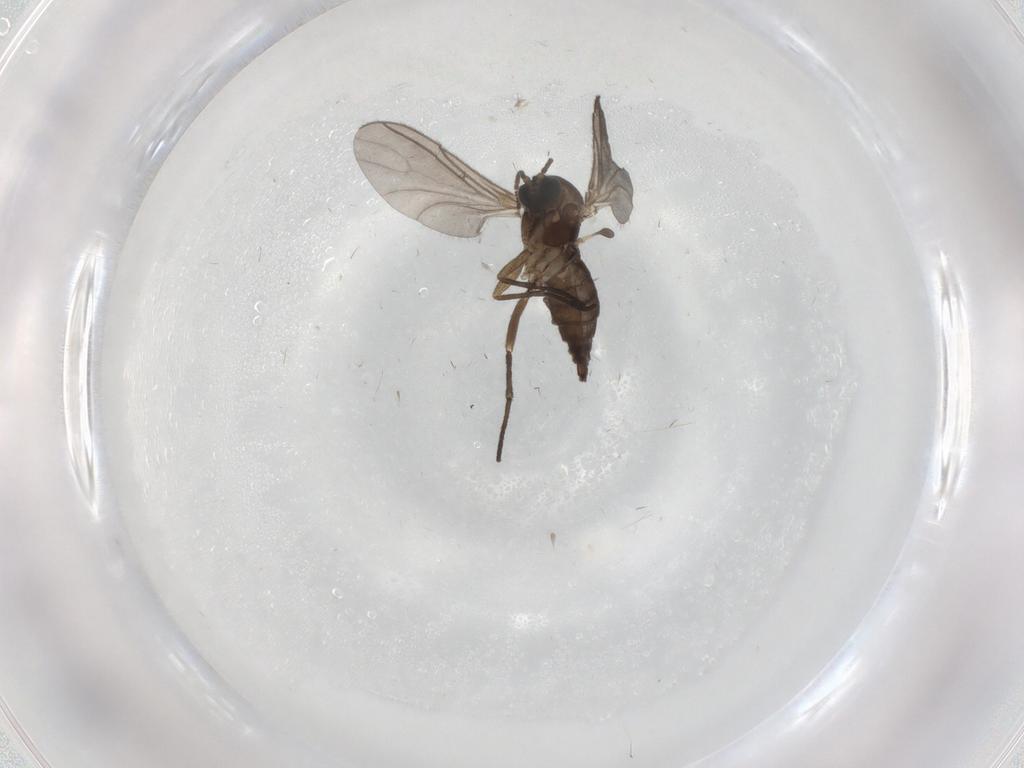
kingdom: Animalia
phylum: Arthropoda
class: Insecta
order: Diptera
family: Sciaridae
